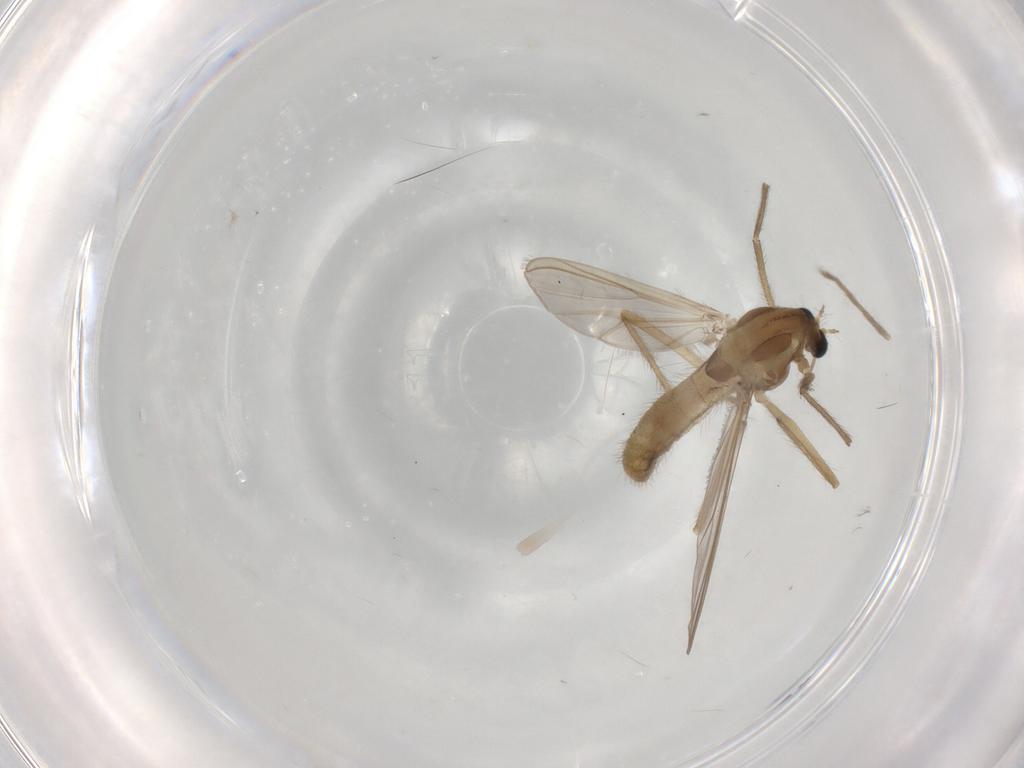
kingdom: Animalia
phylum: Arthropoda
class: Insecta
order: Diptera
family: Chironomidae
